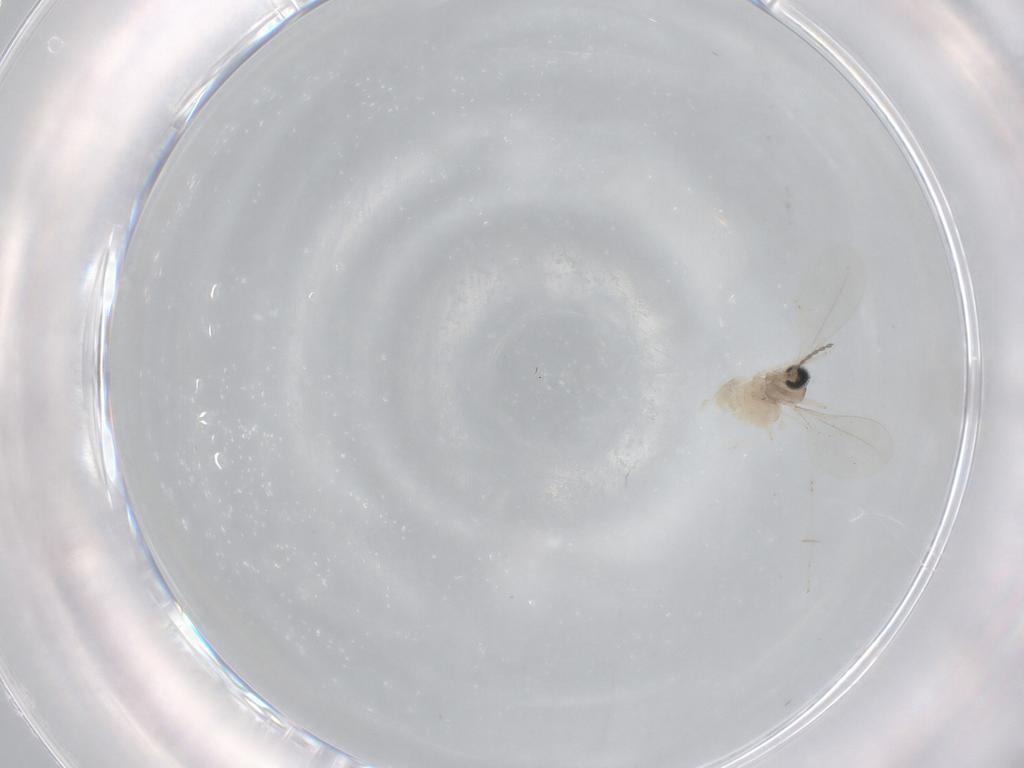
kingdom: Animalia
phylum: Arthropoda
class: Insecta
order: Diptera
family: Cecidomyiidae
